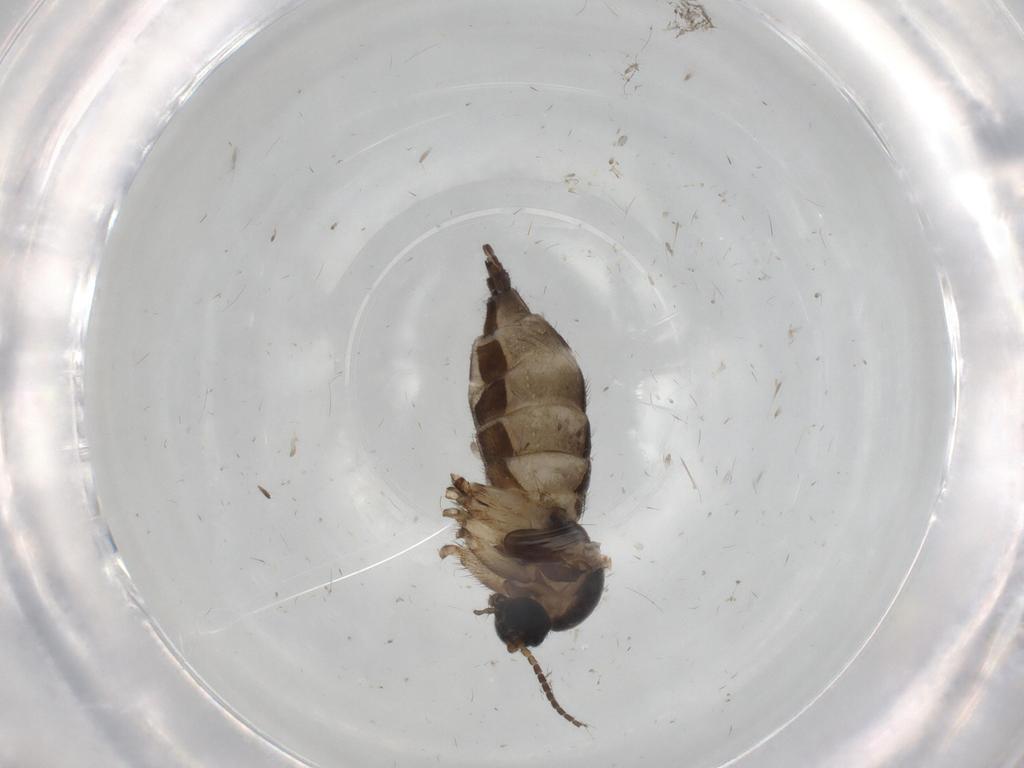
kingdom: Animalia
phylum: Arthropoda
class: Insecta
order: Diptera
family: Sciaridae
